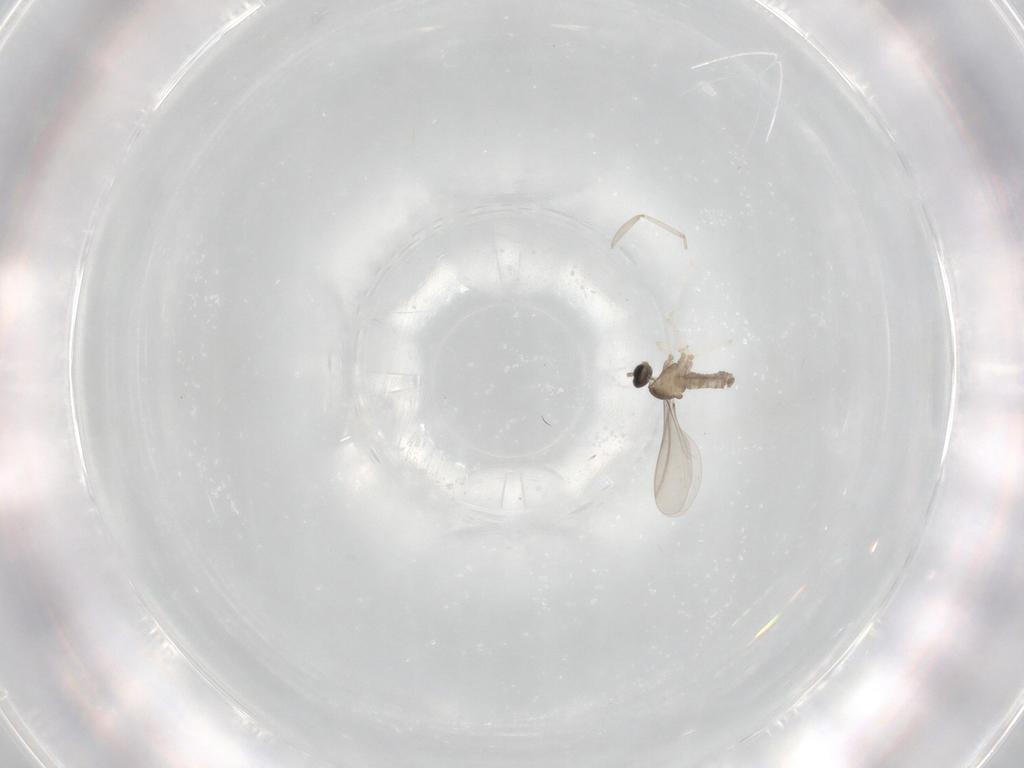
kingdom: Animalia
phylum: Arthropoda
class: Insecta
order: Diptera
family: Cecidomyiidae
